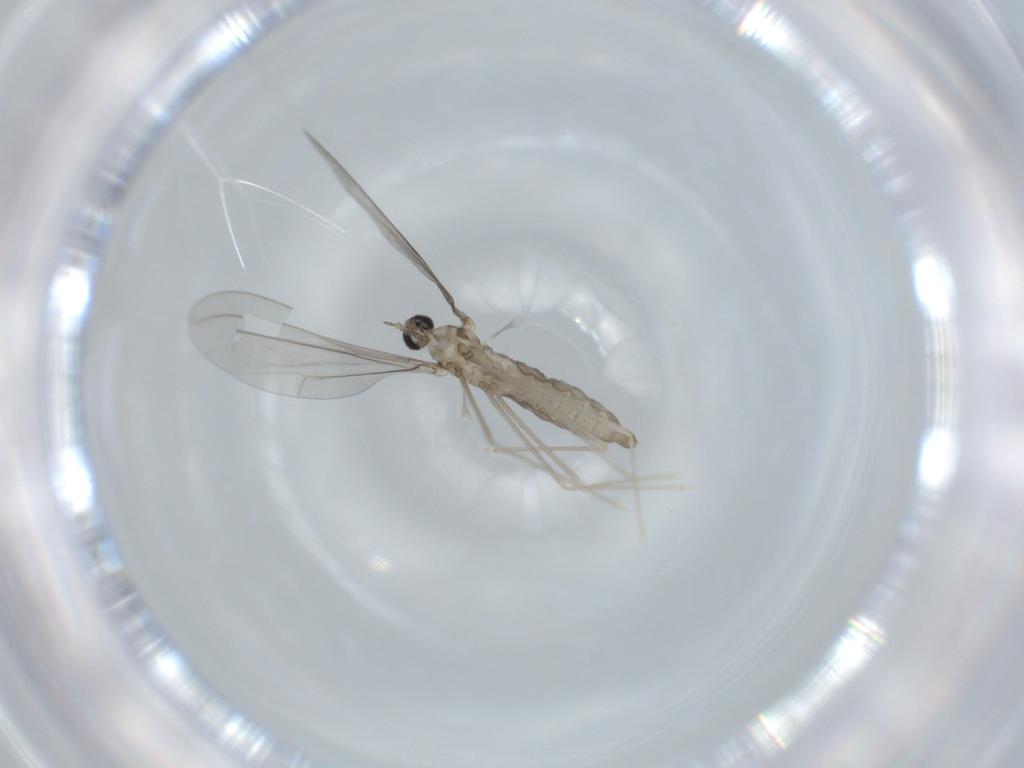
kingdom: Animalia
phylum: Arthropoda
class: Insecta
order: Diptera
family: Cecidomyiidae
